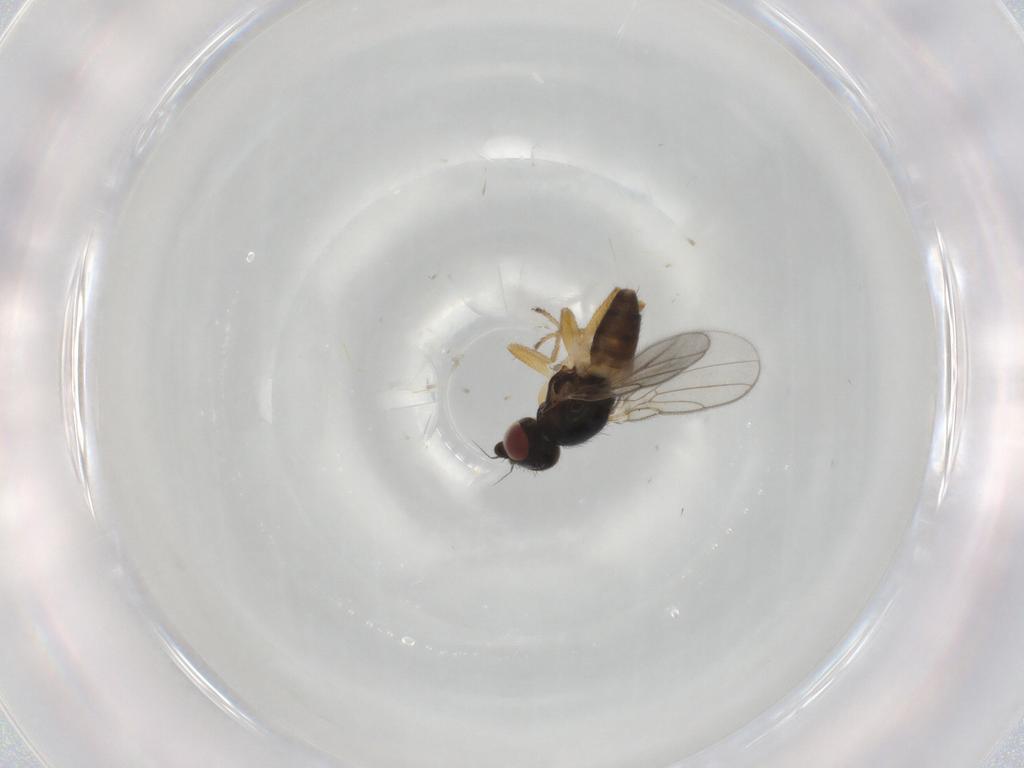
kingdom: Animalia
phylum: Arthropoda
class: Insecta
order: Diptera
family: Chloropidae
